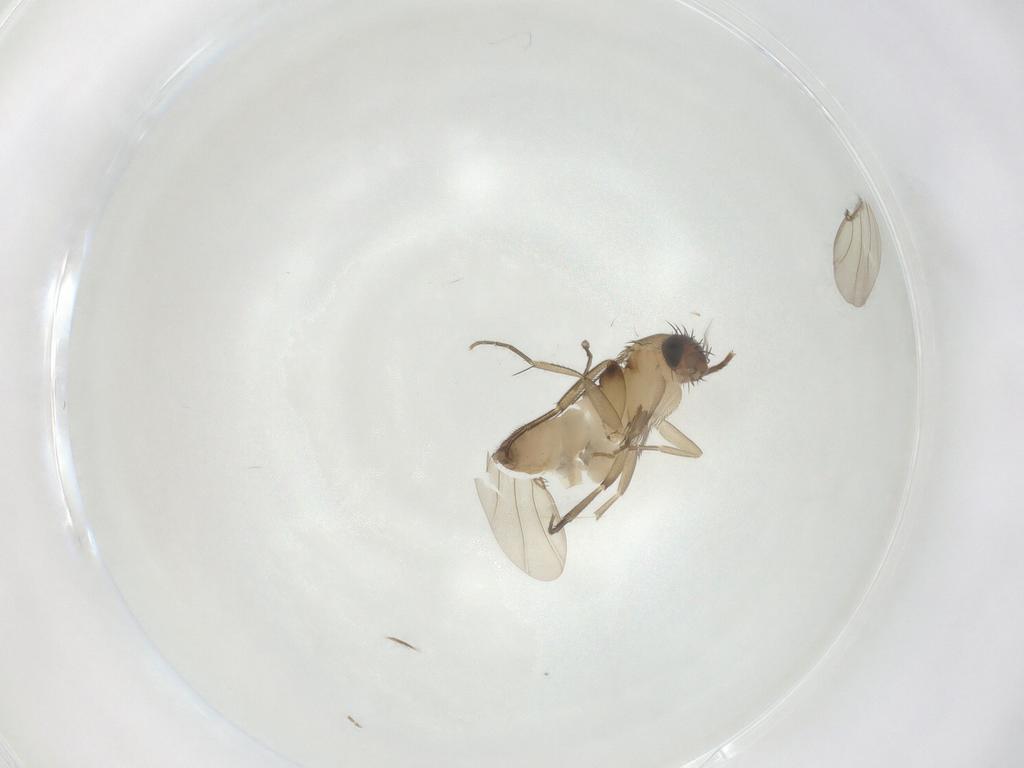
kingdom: Animalia
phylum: Arthropoda
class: Insecta
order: Diptera
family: Phoridae
